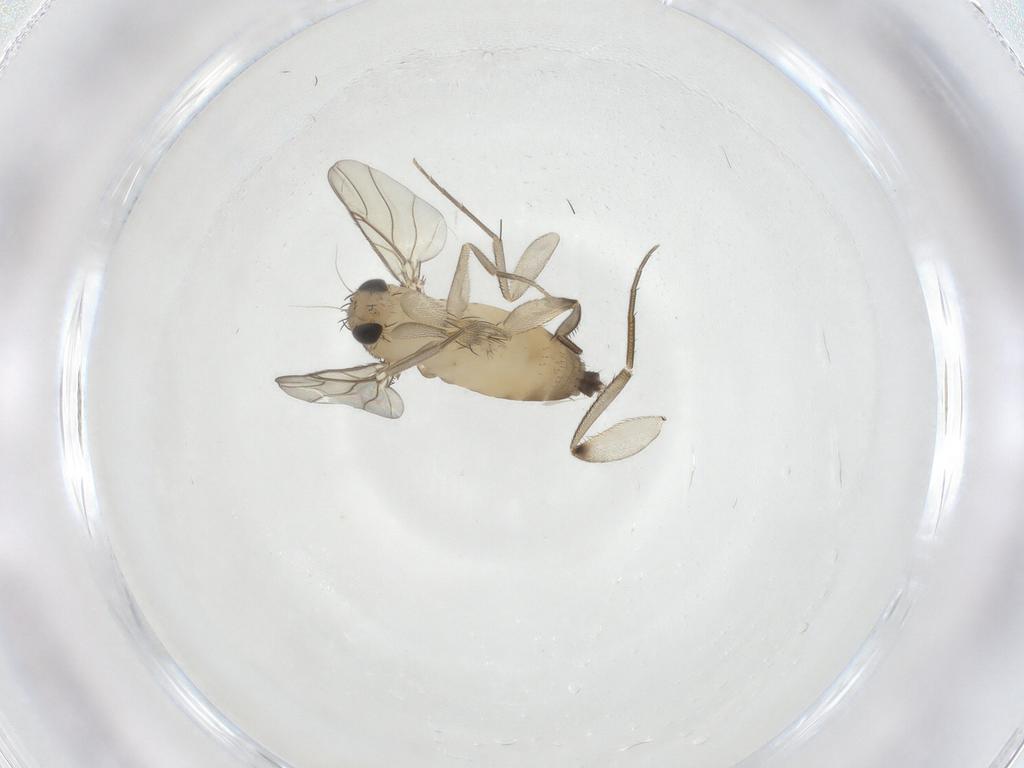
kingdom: Animalia
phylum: Arthropoda
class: Insecta
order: Diptera
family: Phoridae
